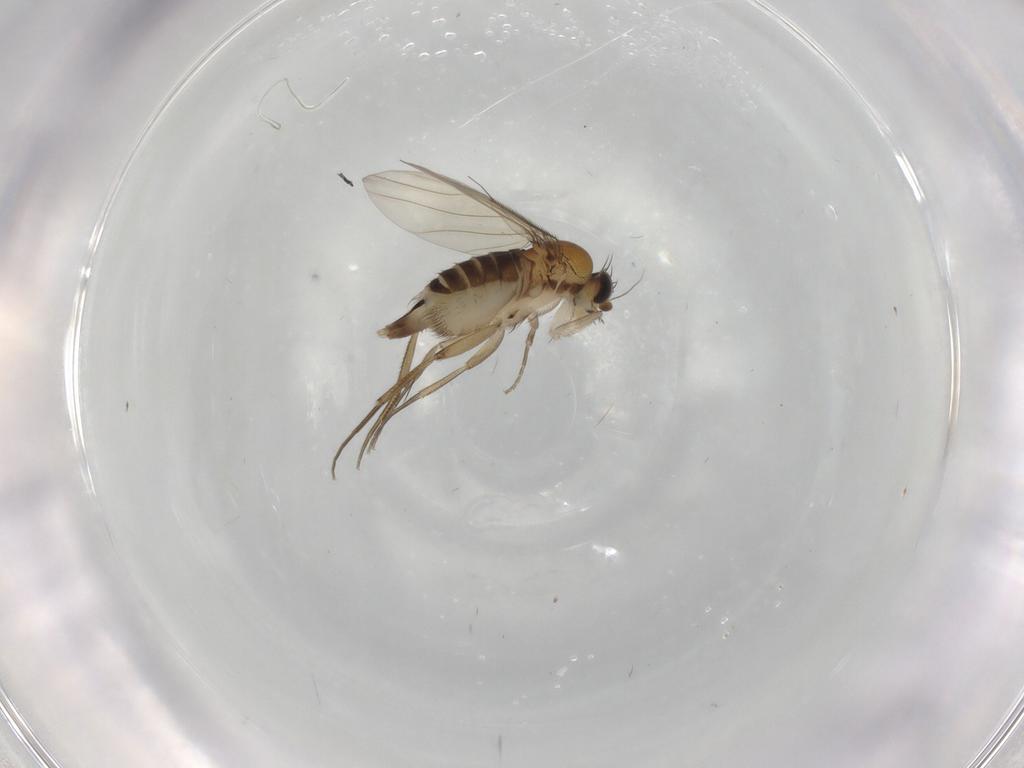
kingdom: Animalia
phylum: Arthropoda
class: Insecta
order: Diptera
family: Phoridae
